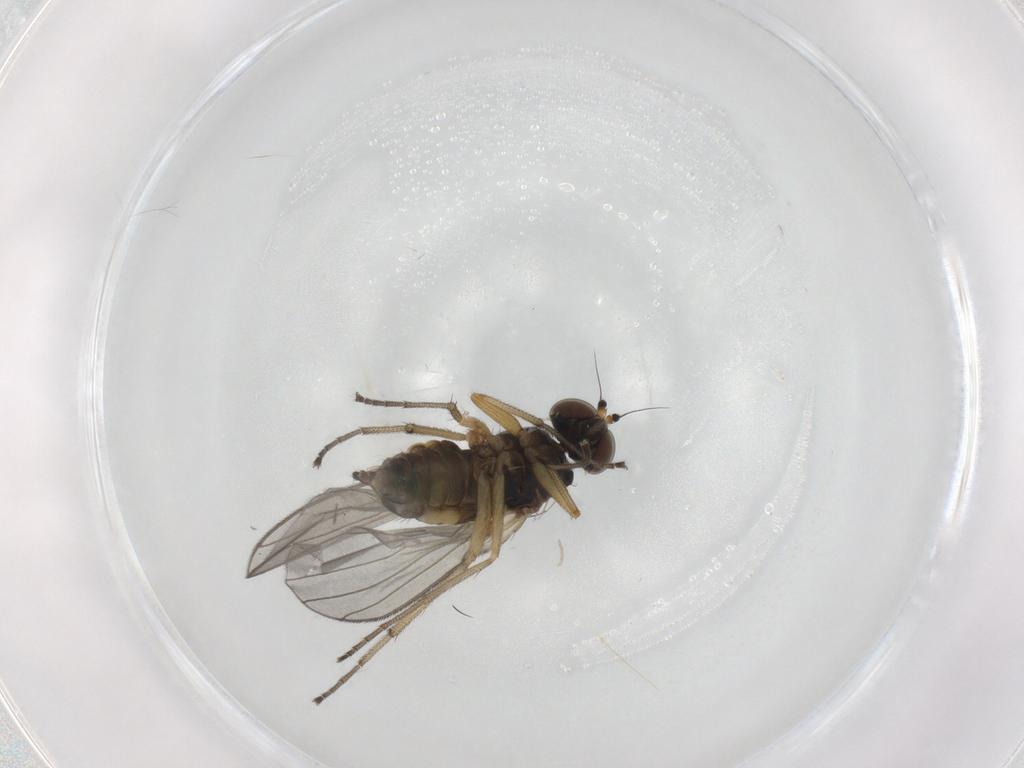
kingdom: Animalia
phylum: Arthropoda
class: Insecta
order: Diptera
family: Dolichopodidae
